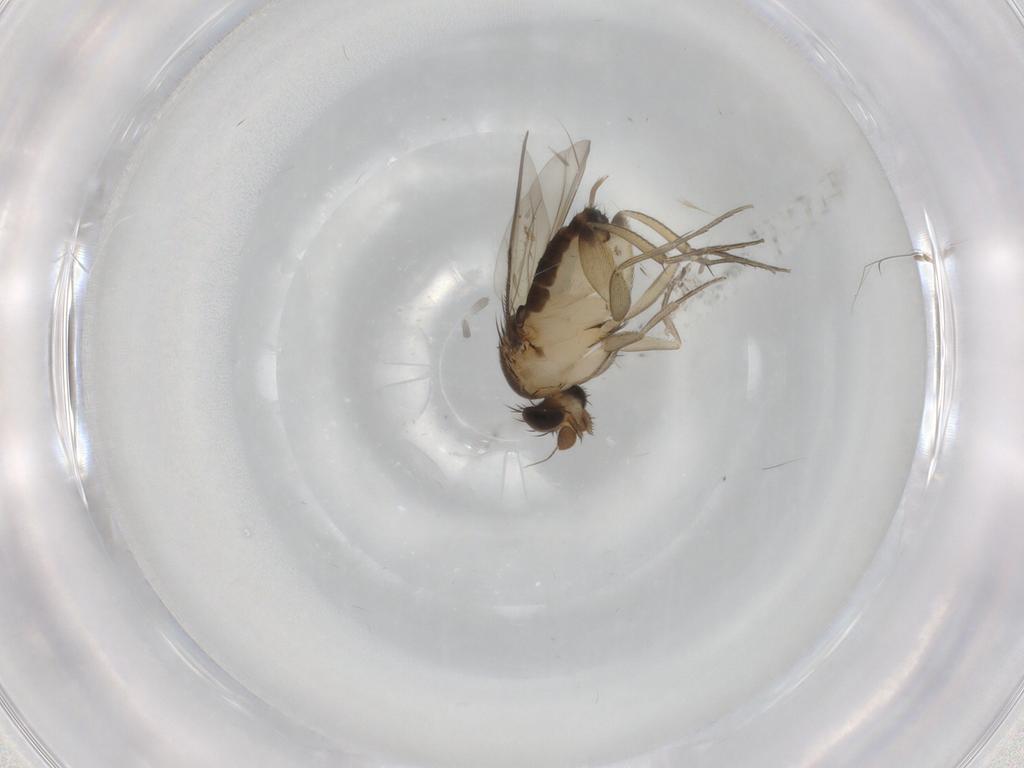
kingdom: Animalia
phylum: Arthropoda
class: Insecta
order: Diptera
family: Phoridae
